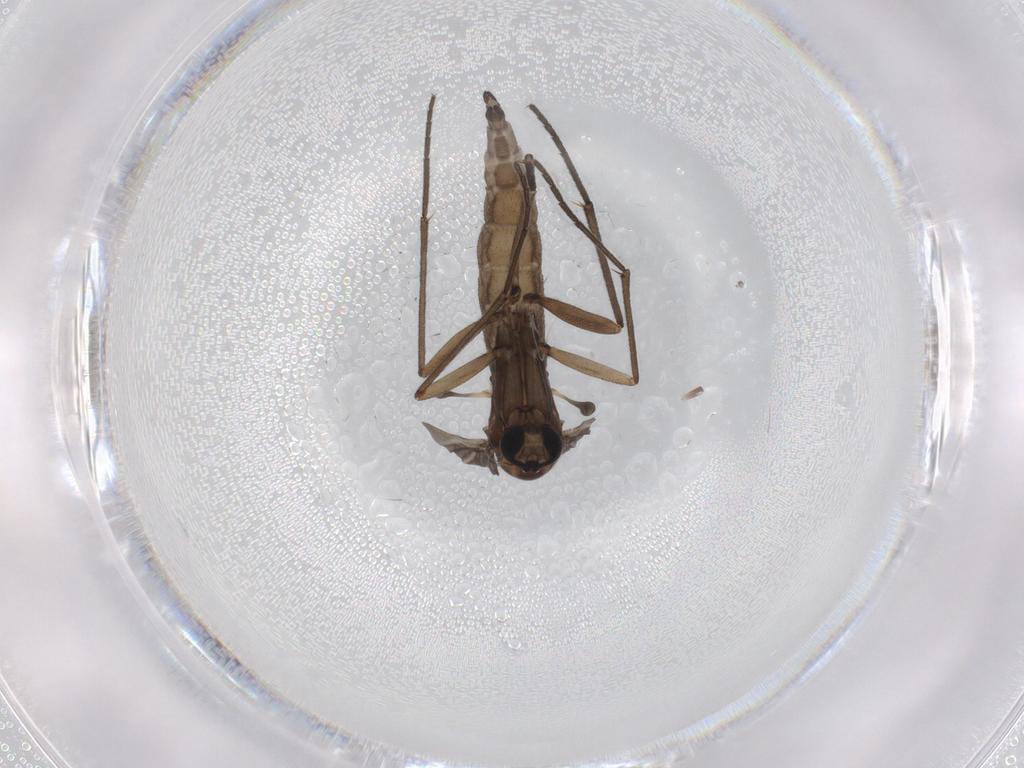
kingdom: Animalia
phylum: Arthropoda
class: Insecta
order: Diptera
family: Sciaridae
